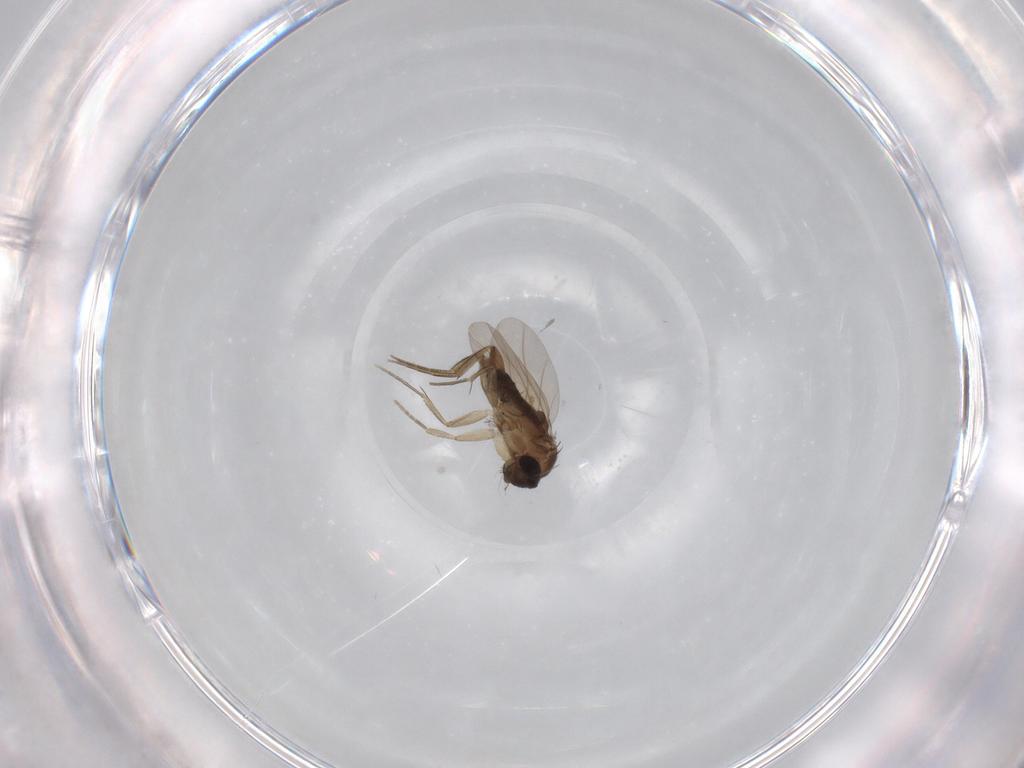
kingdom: Animalia
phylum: Arthropoda
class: Insecta
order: Diptera
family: Phoridae
